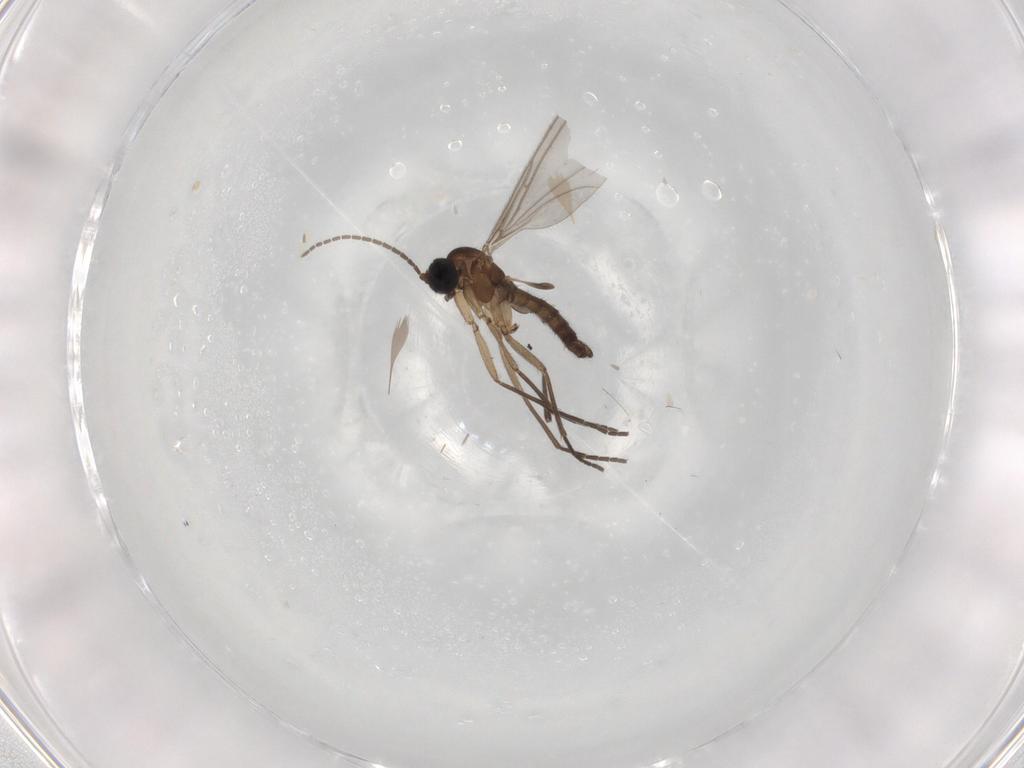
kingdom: Animalia
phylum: Arthropoda
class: Insecta
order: Diptera
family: Sciaridae
